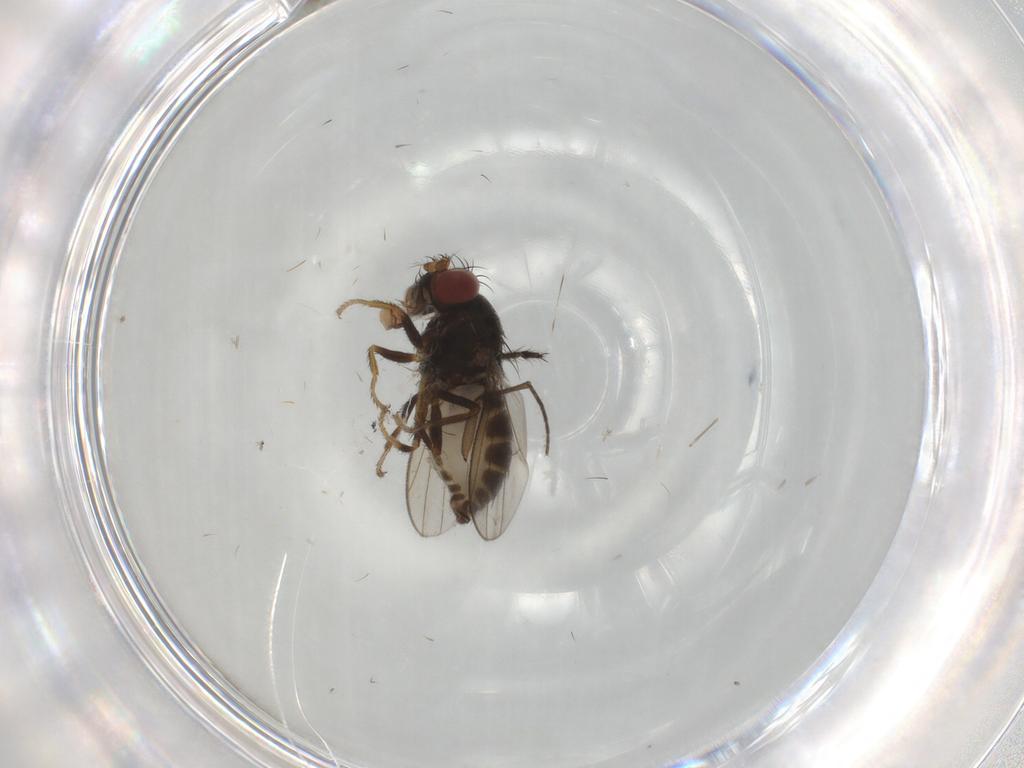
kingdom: Animalia
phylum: Arthropoda
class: Insecta
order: Diptera
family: Sciaridae
